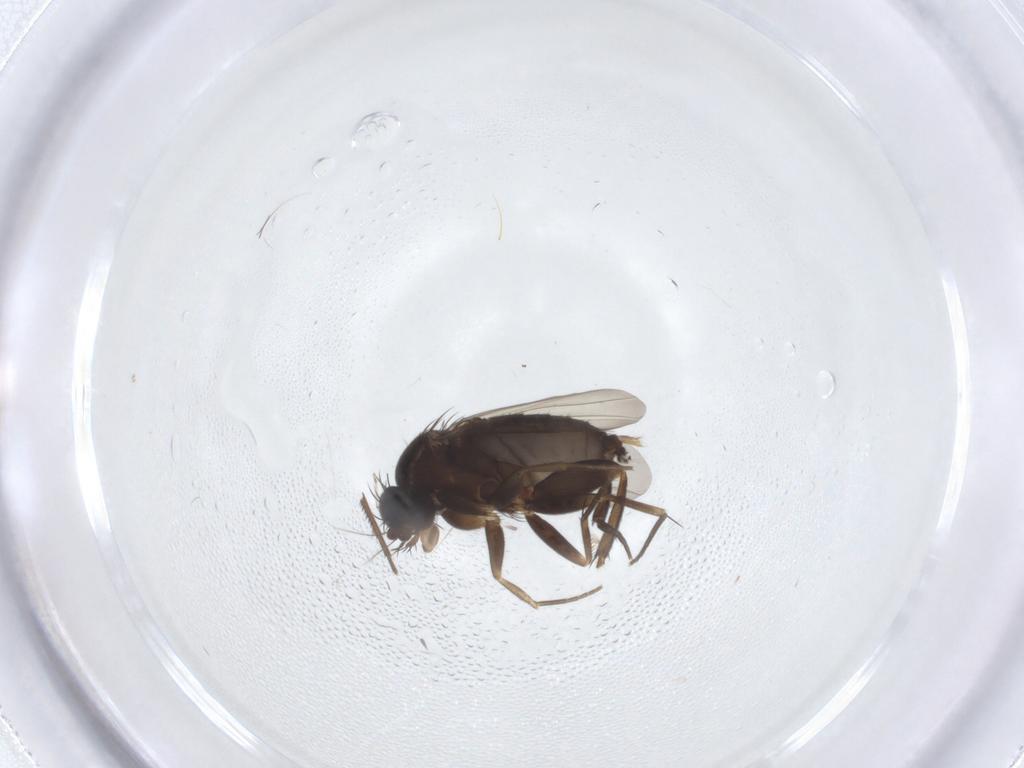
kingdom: Animalia
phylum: Arthropoda
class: Insecta
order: Diptera
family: Phoridae
